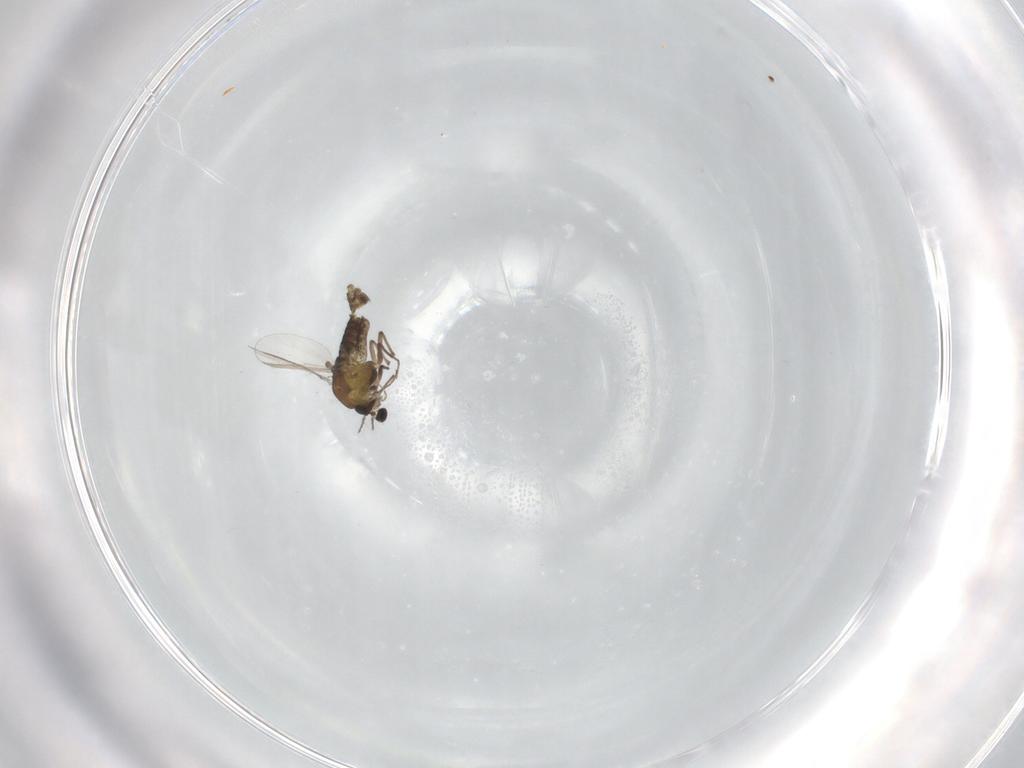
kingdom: Animalia
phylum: Arthropoda
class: Insecta
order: Diptera
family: Chironomidae
